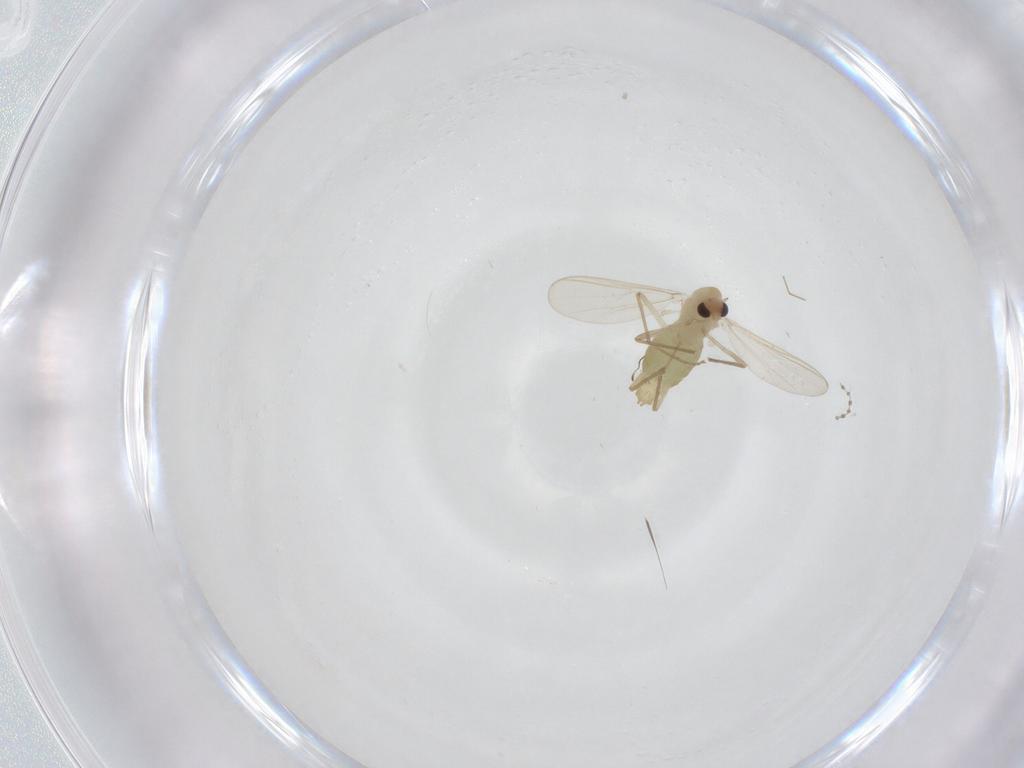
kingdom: Animalia
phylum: Arthropoda
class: Insecta
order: Diptera
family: Chironomidae
